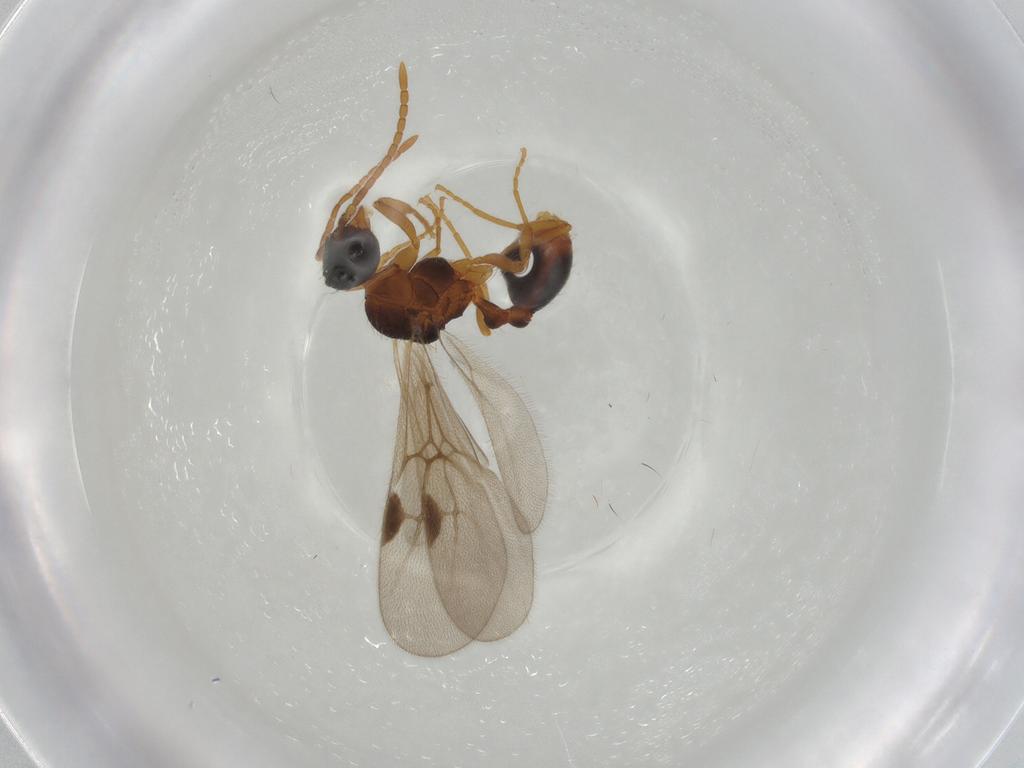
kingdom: Animalia
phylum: Arthropoda
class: Insecta
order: Hymenoptera
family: Formicidae
